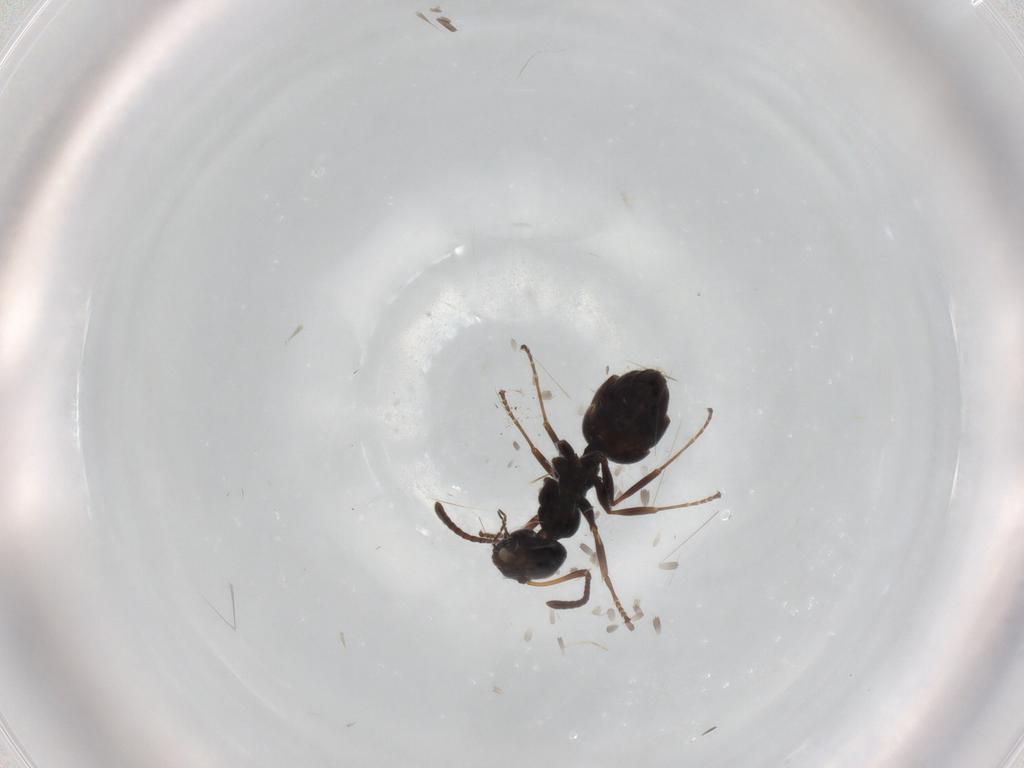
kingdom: Animalia
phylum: Arthropoda
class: Insecta
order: Hymenoptera
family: Formicidae
